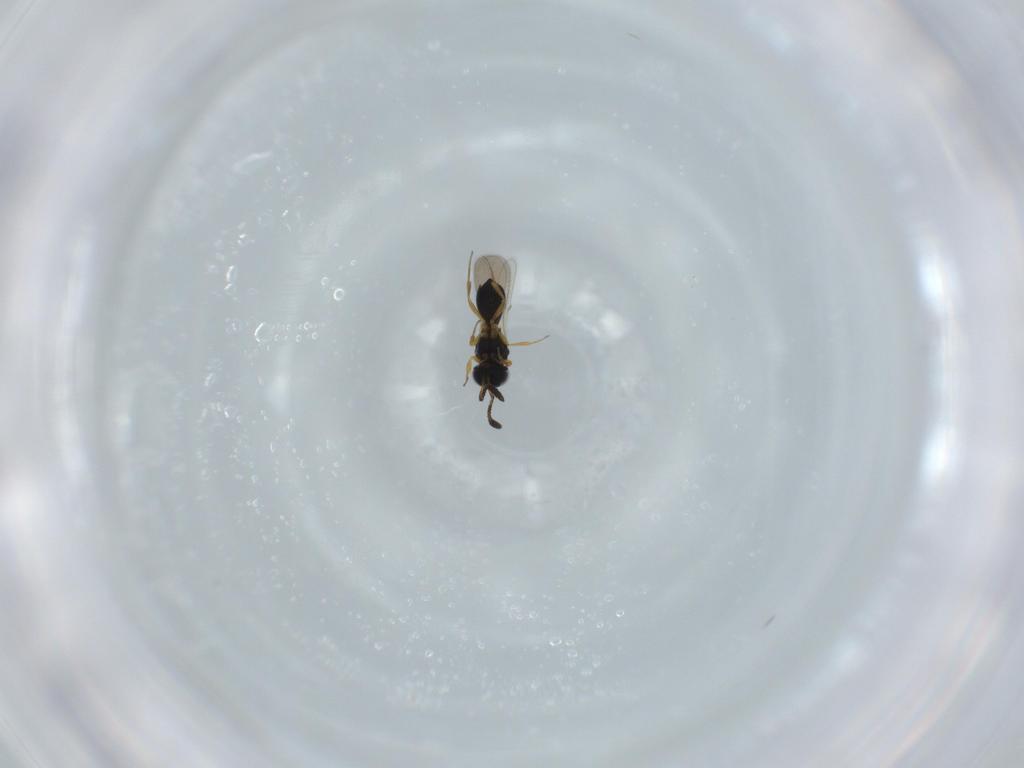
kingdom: Animalia
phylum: Arthropoda
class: Insecta
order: Hymenoptera
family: Scelionidae
